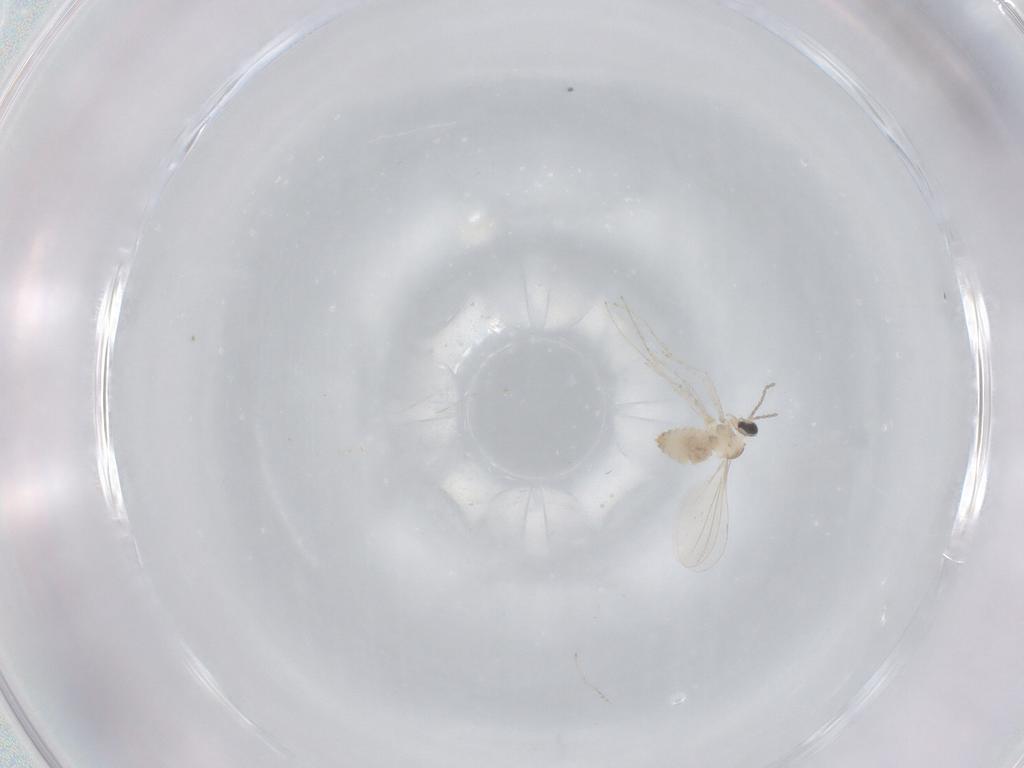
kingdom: Animalia
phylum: Arthropoda
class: Insecta
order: Diptera
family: Chironomidae
